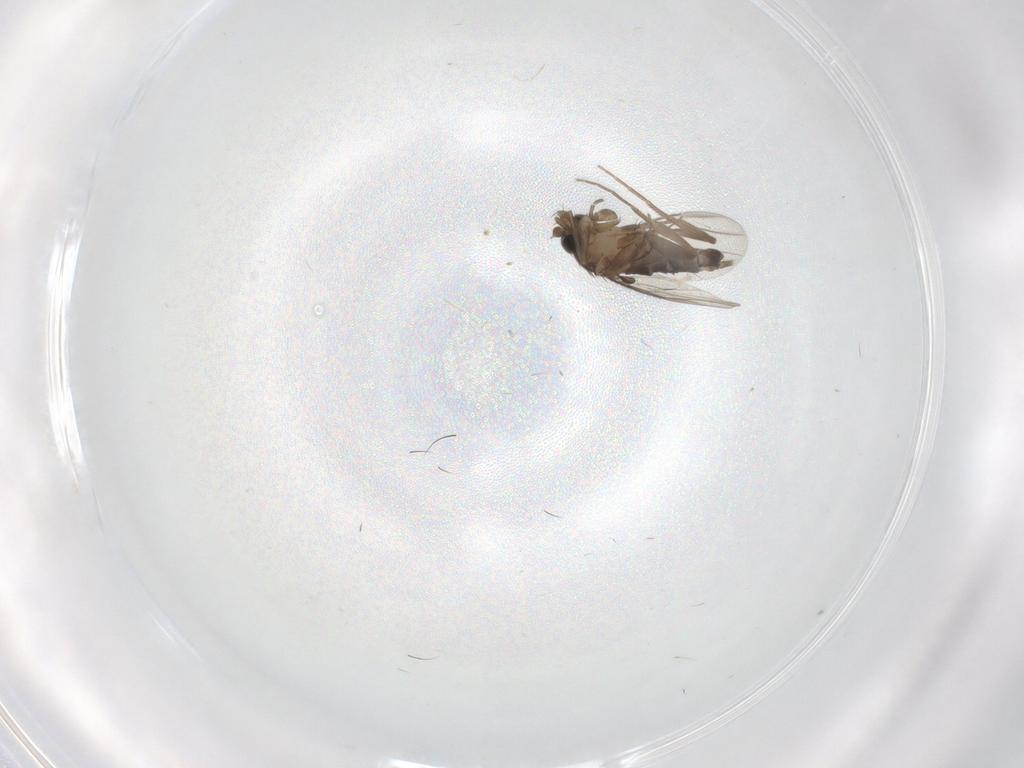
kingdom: Animalia
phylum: Arthropoda
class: Insecta
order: Diptera
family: Phoridae
